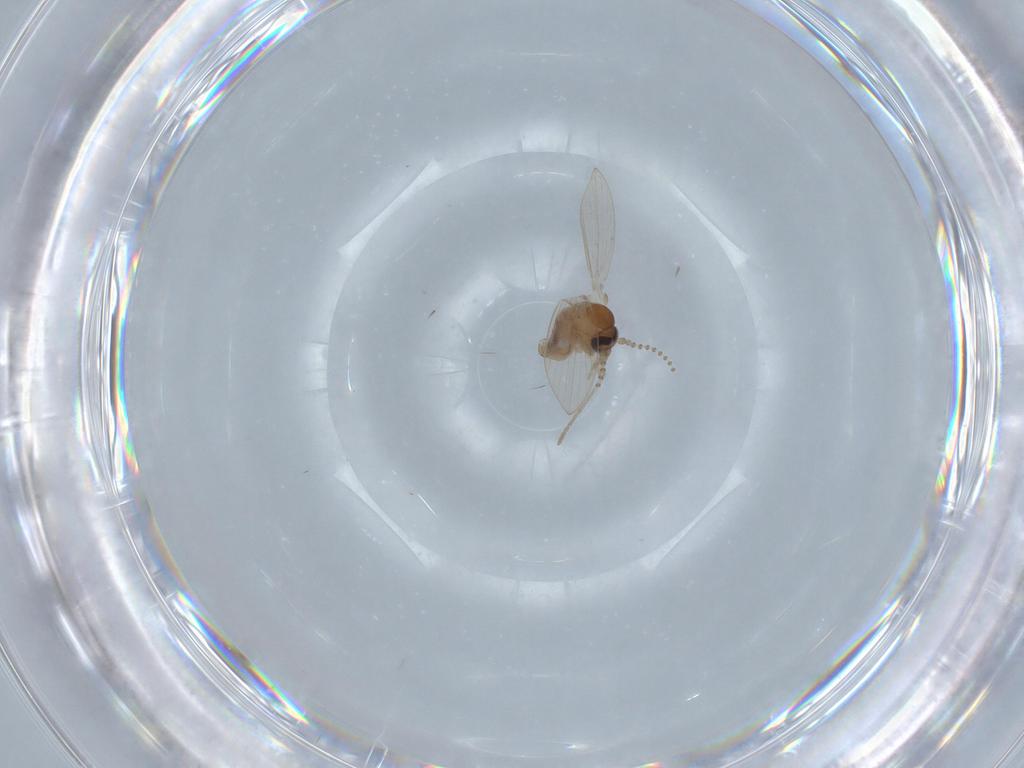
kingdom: Animalia
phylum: Arthropoda
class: Insecta
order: Diptera
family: Psychodidae
